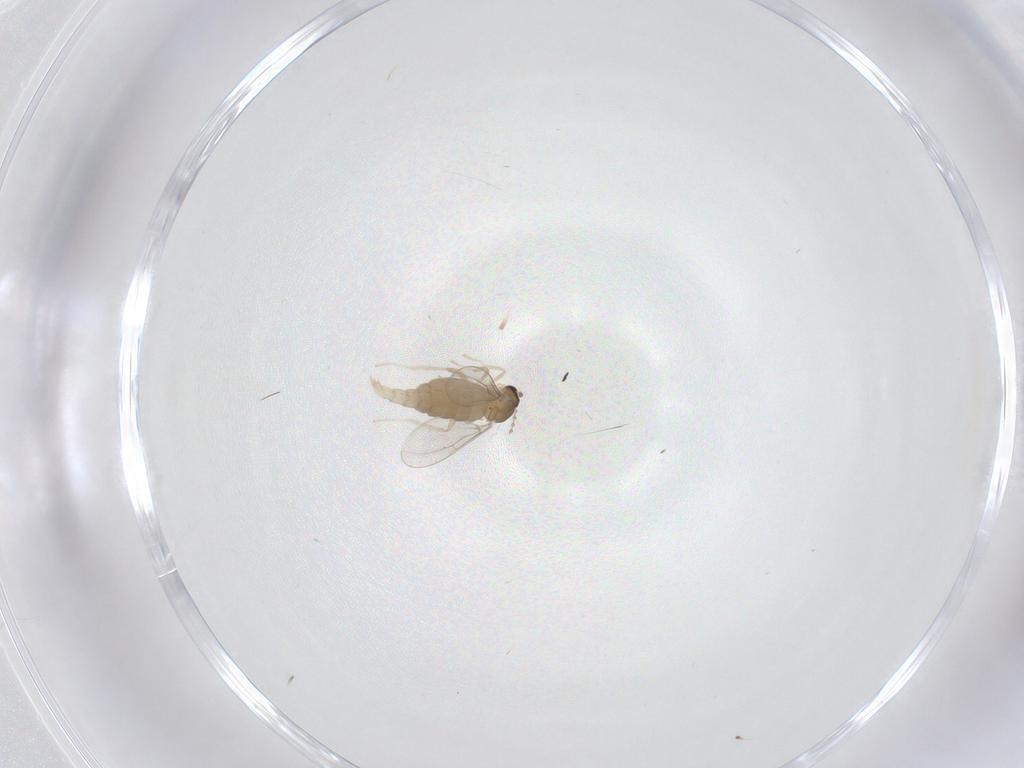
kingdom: Animalia
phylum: Arthropoda
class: Insecta
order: Diptera
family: Cecidomyiidae
